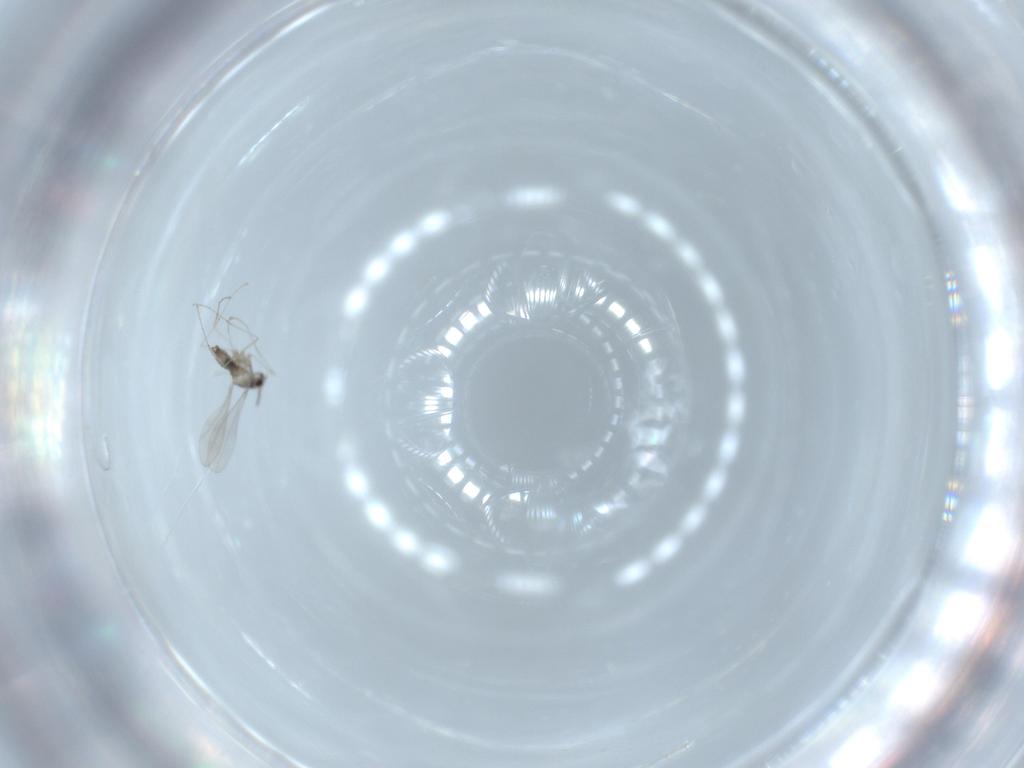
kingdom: Animalia
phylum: Arthropoda
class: Insecta
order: Diptera
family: Cecidomyiidae
